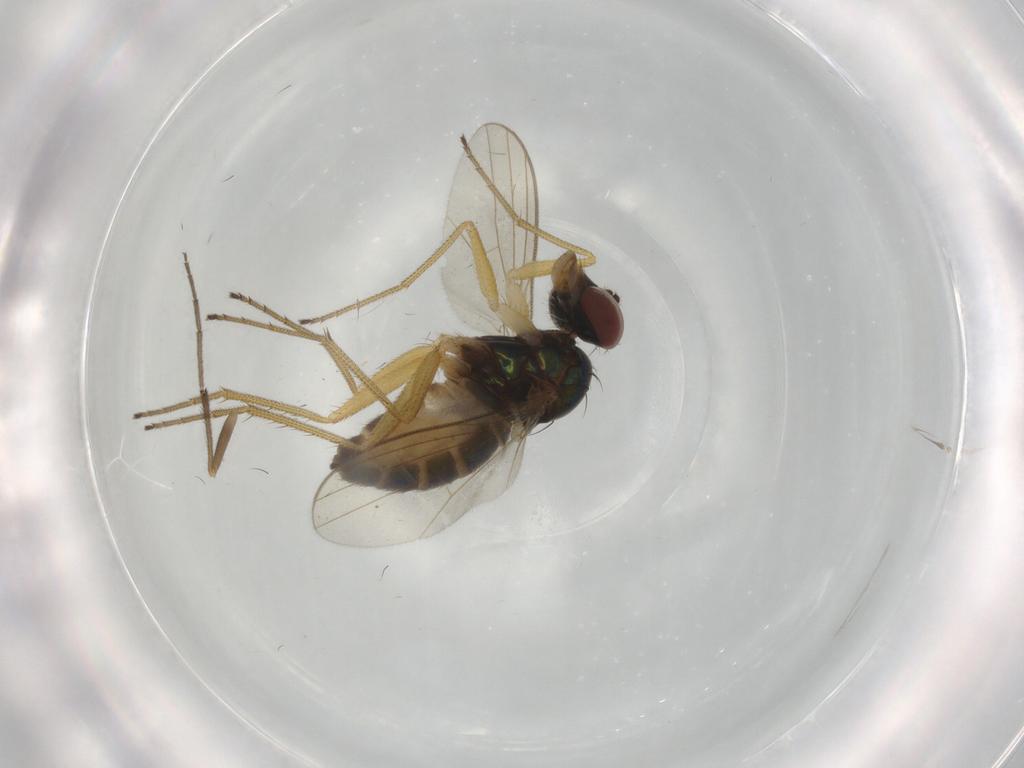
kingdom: Animalia
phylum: Arthropoda
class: Insecta
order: Diptera
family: Dolichopodidae
